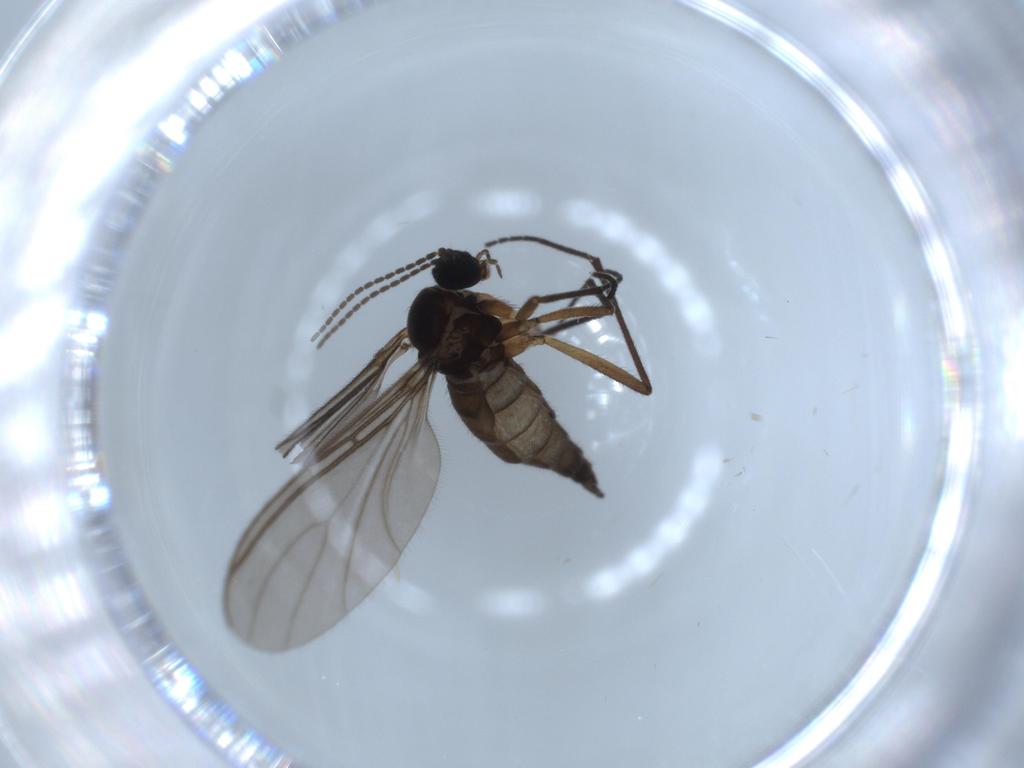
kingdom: Animalia
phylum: Arthropoda
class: Insecta
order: Diptera
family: Sciaridae
